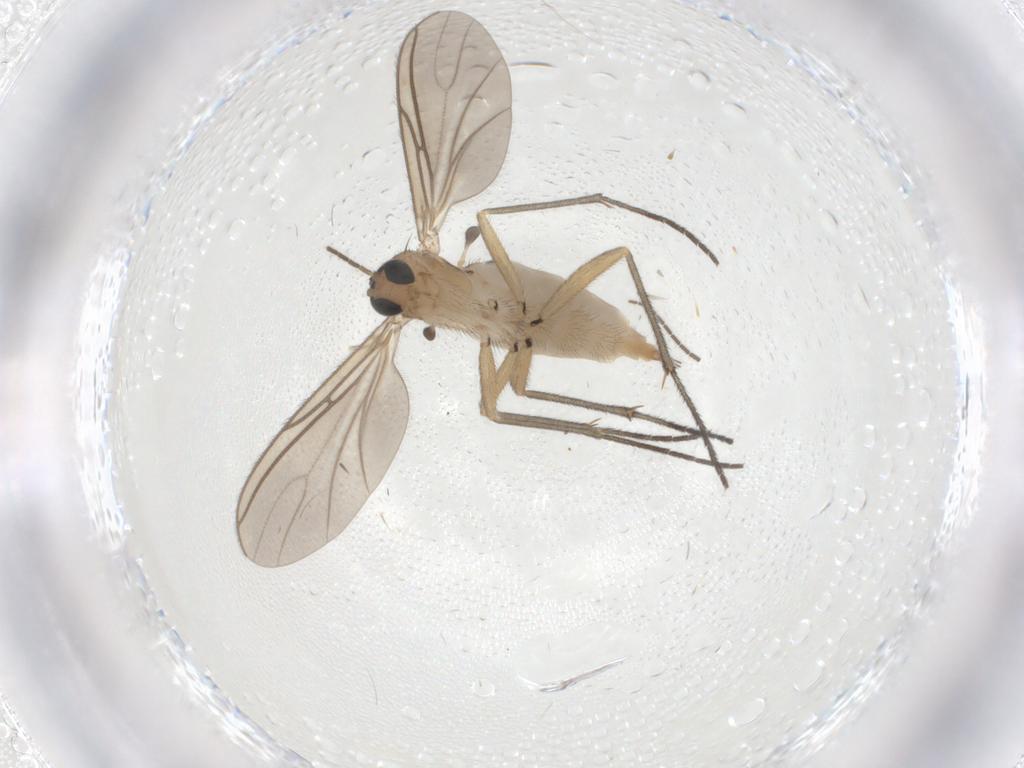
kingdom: Animalia
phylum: Arthropoda
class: Insecta
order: Diptera
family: Sciaridae
